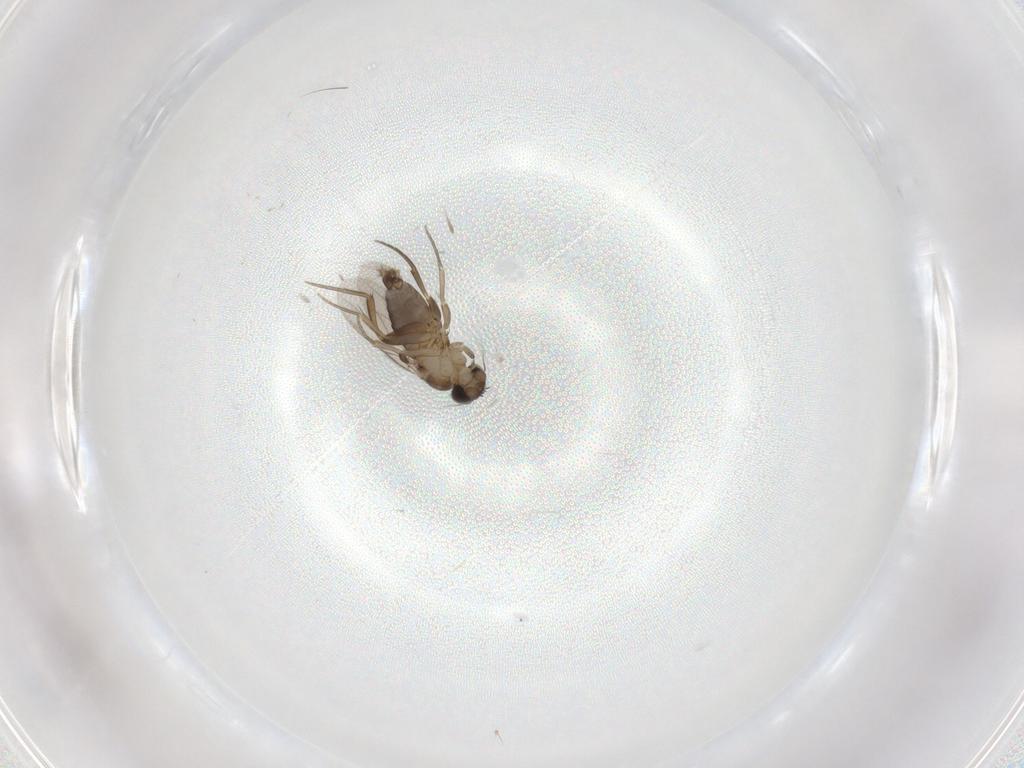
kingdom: Animalia
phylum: Arthropoda
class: Insecta
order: Diptera
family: Phoridae
